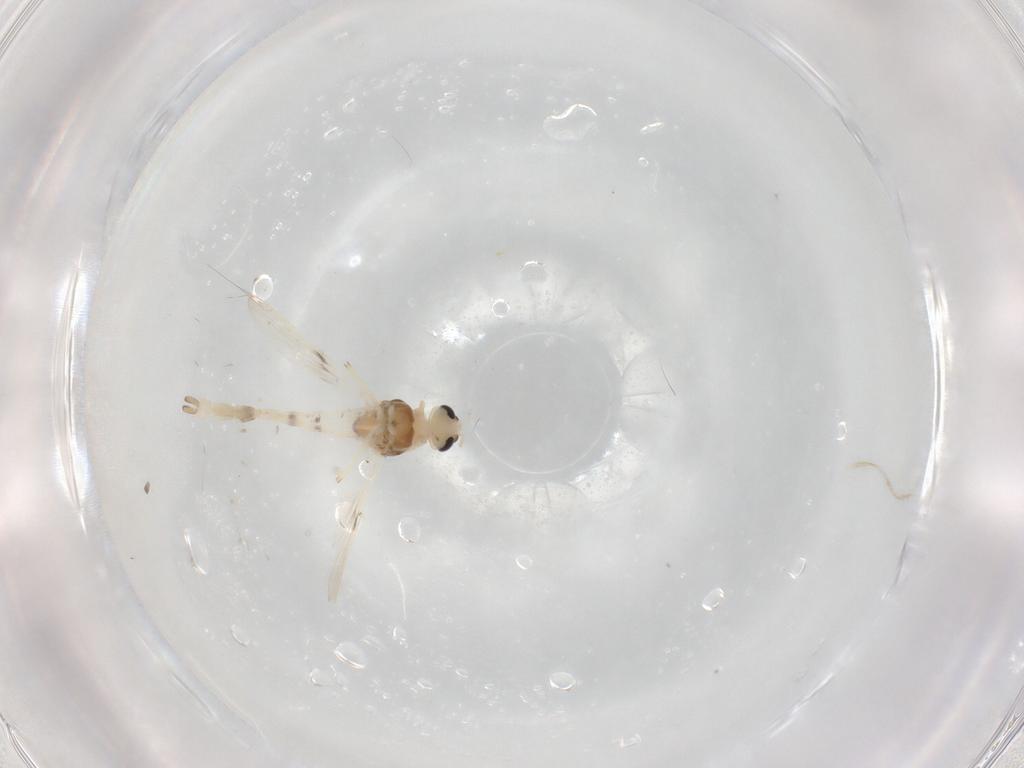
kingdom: Animalia
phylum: Arthropoda
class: Insecta
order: Diptera
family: Chironomidae
